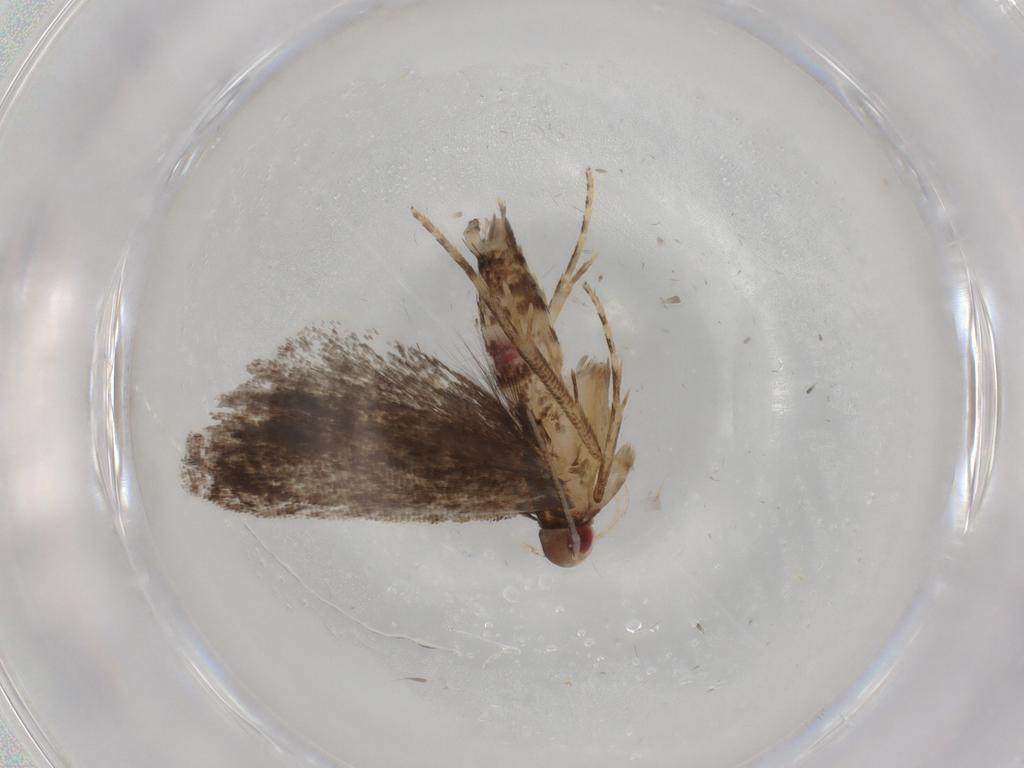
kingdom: Animalia
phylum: Arthropoda
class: Insecta
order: Lepidoptera
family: Gelechiidae
